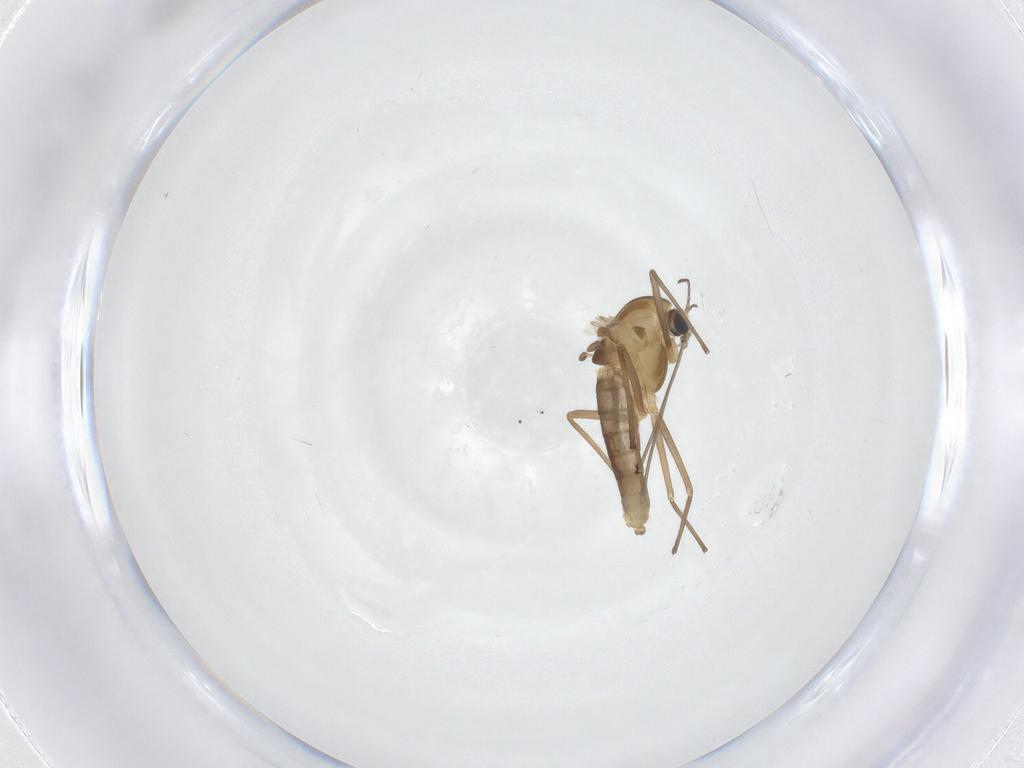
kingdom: Animalia
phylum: Arthropoda
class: Insecta
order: Diptera
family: Chironomidae
